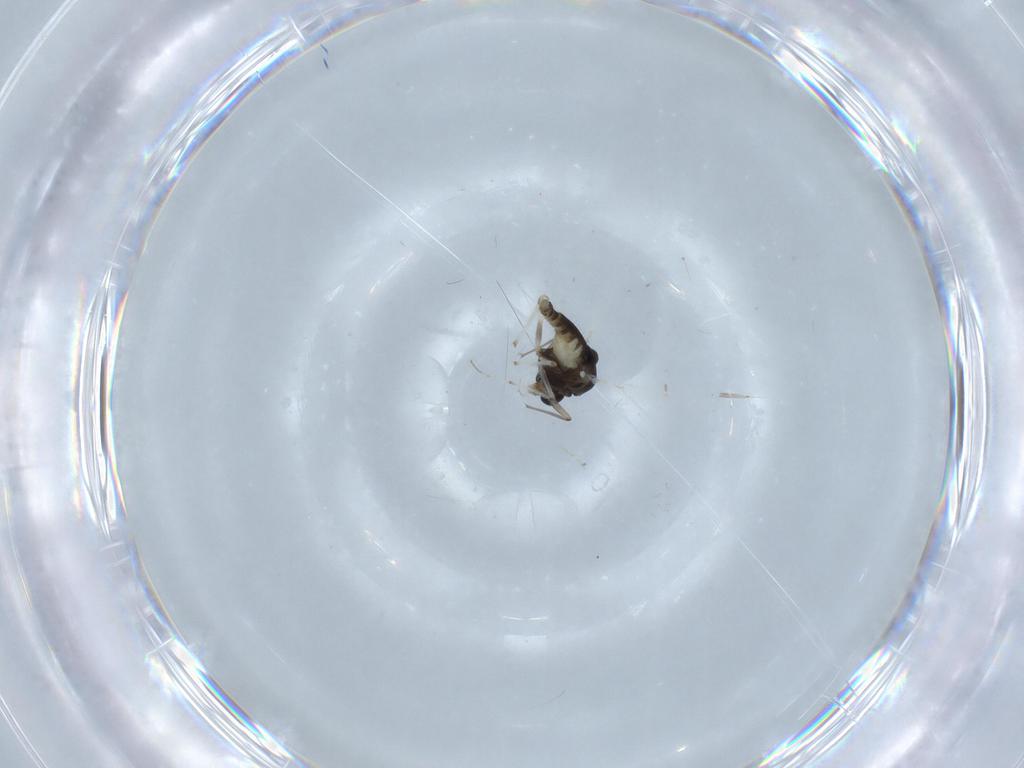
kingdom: Animalia
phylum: Arthropoda
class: Insecta
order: Diptera
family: Chironomidae
